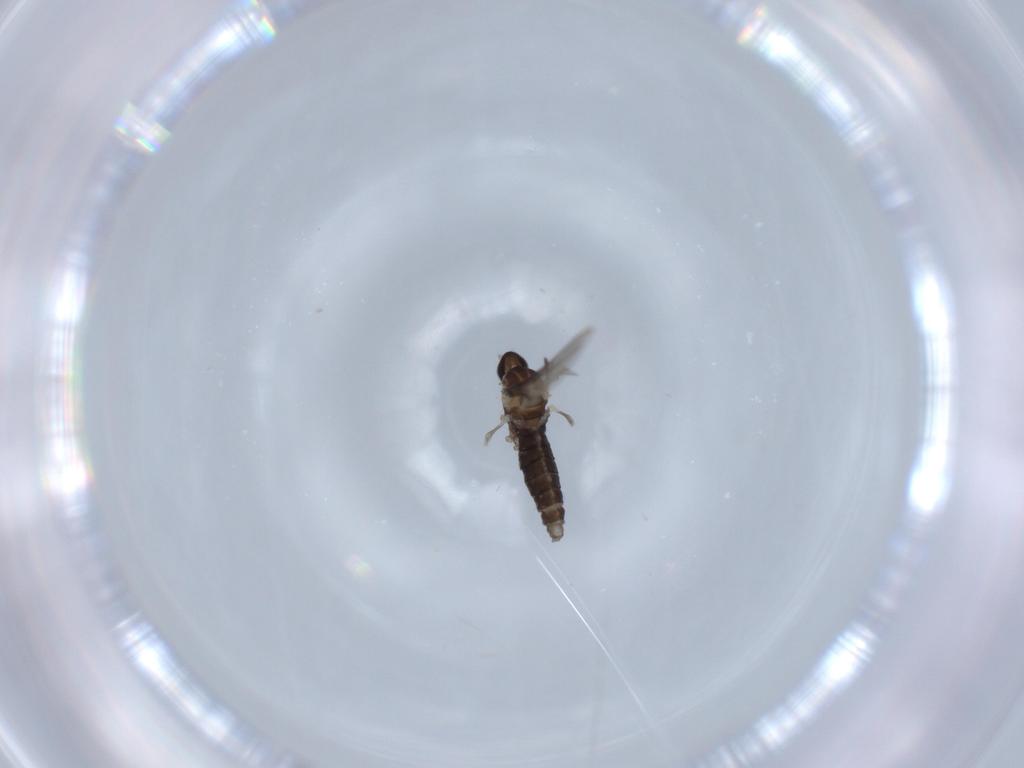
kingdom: Animalia
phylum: Arthropoda
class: Insecta
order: Diptera
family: Cecidomyiidae
